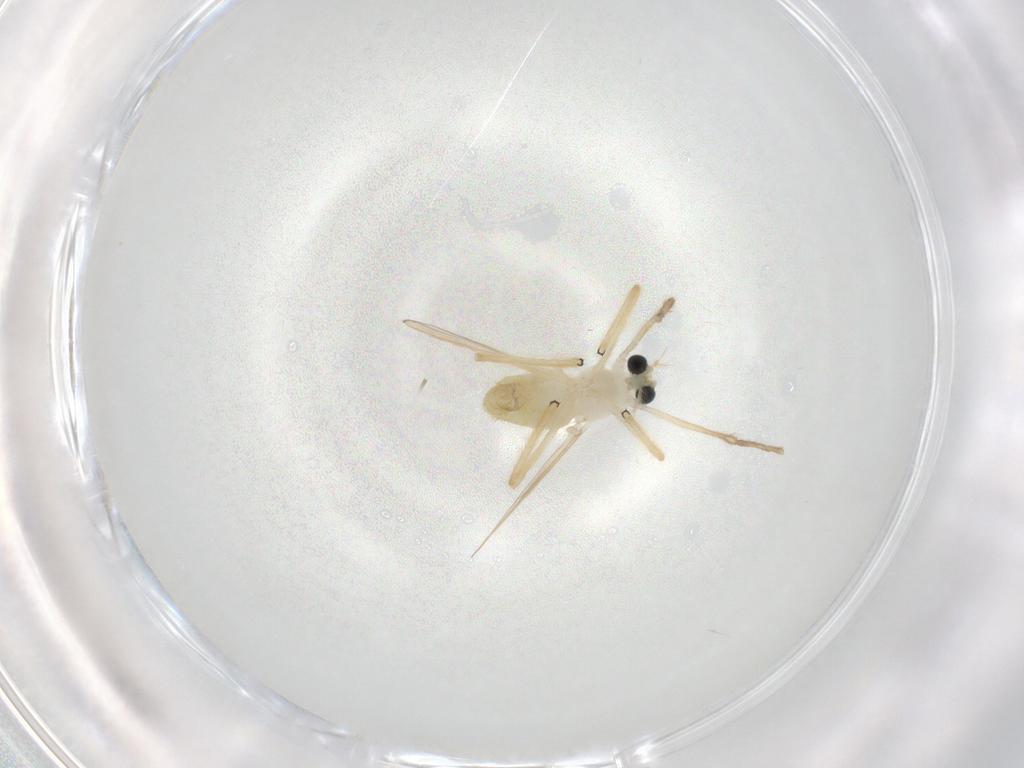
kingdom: Animalia
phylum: Arthropoda
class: Insecta
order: Diptera
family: Chironomidae
